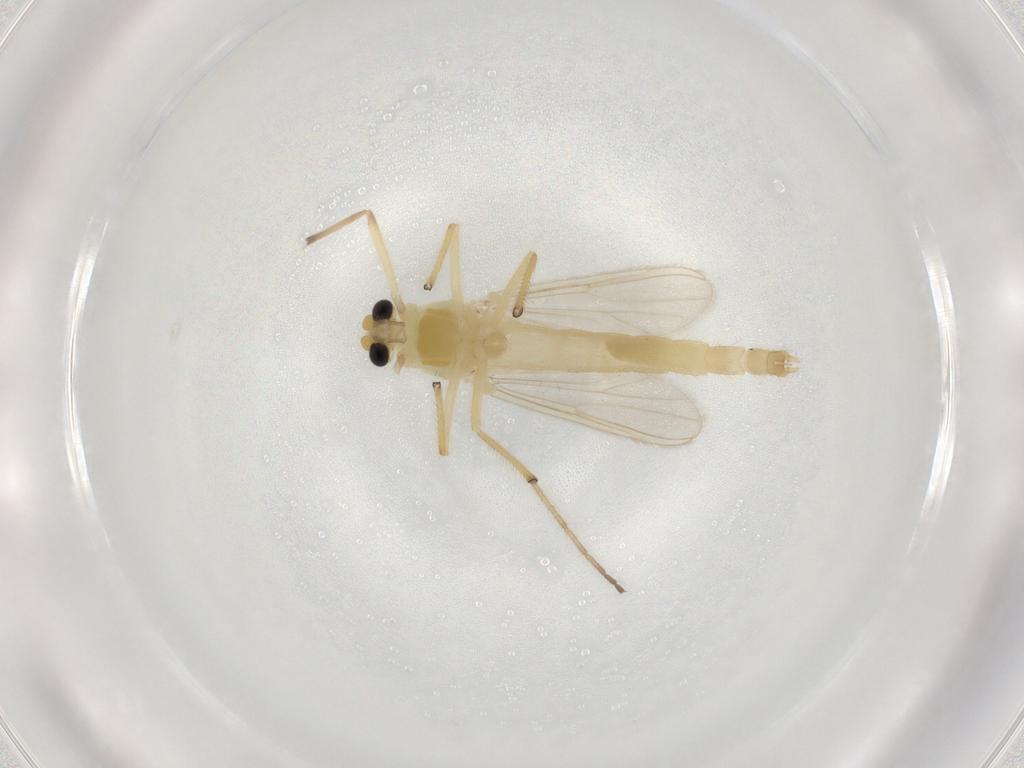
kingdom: Animalia
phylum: Arthropoda
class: Insecta
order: Diptera
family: Chironomidae
